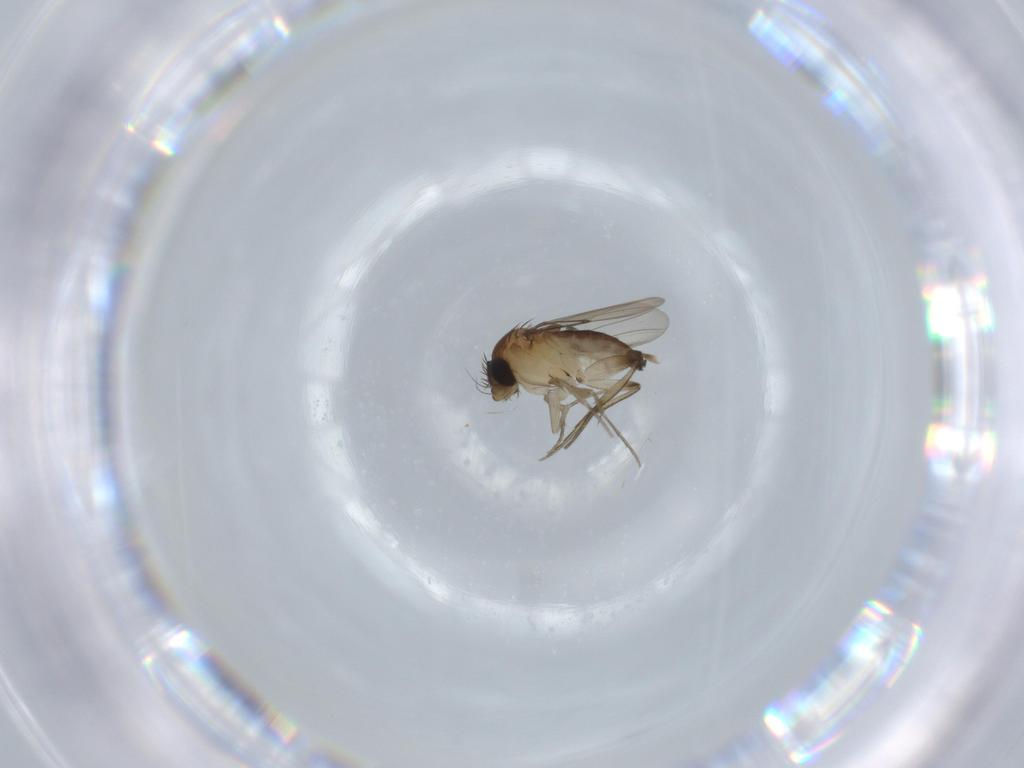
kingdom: Animalia
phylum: Arthropoda
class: Insecta
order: Diptera
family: Phoridae
